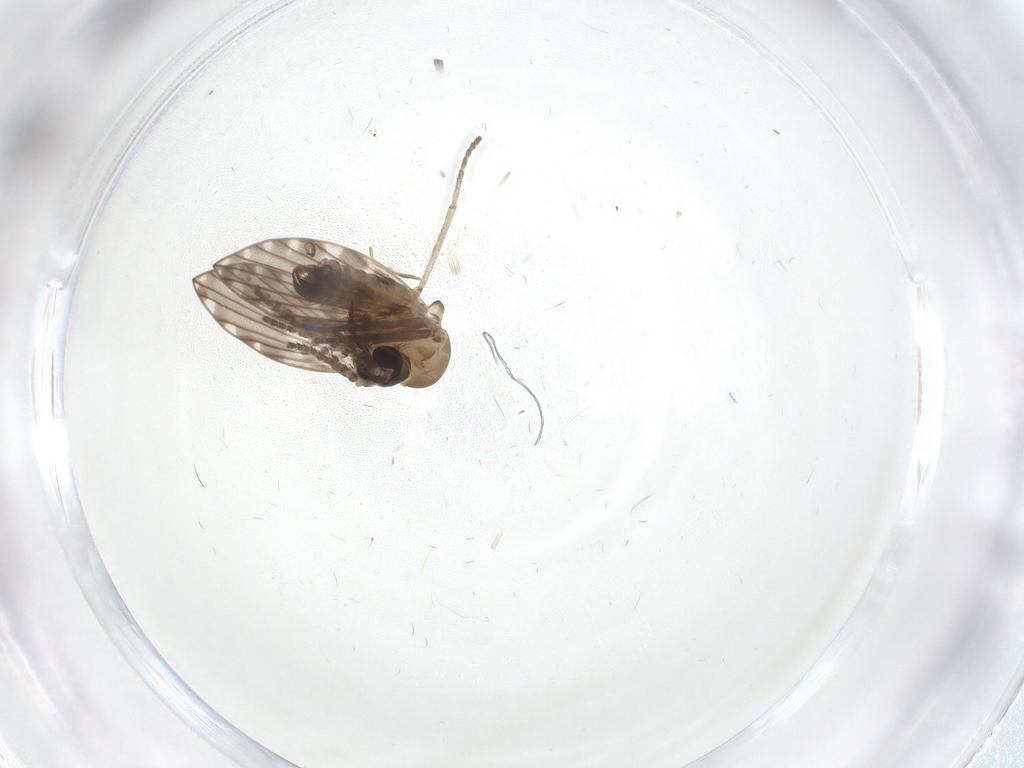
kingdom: Animalia
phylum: Arthropoda
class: Insecta
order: Diptera
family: Psychodidae
